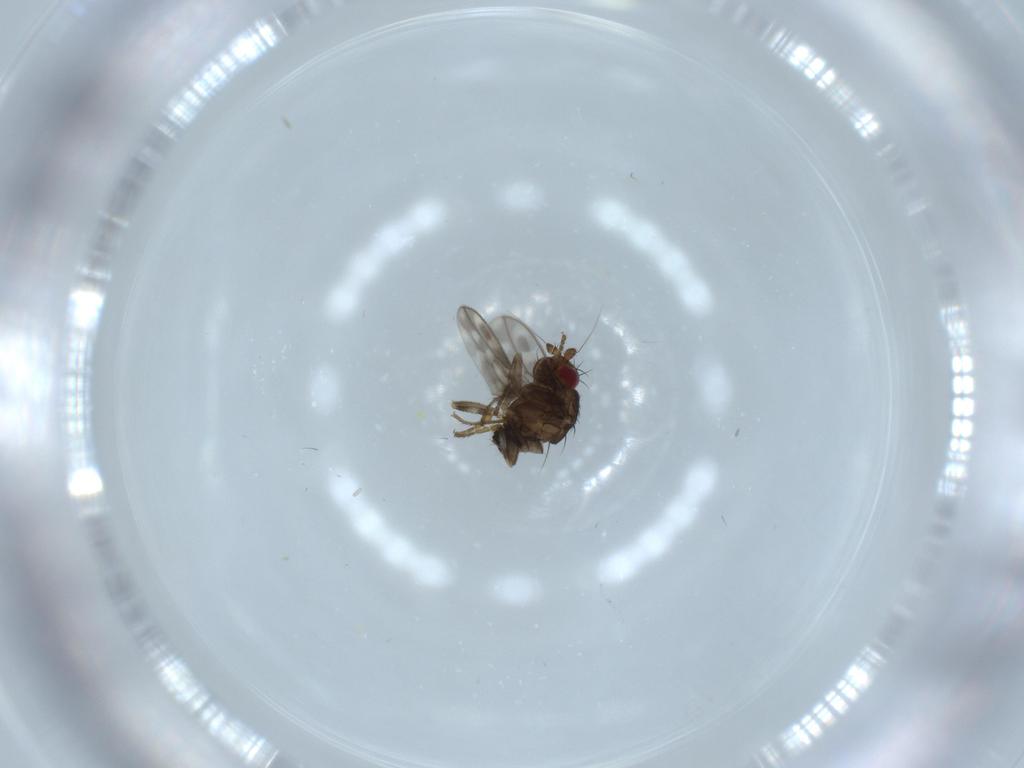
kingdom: Animalia
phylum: Arthropoda
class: Insecta
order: Diptera
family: Sphaeroceridae
